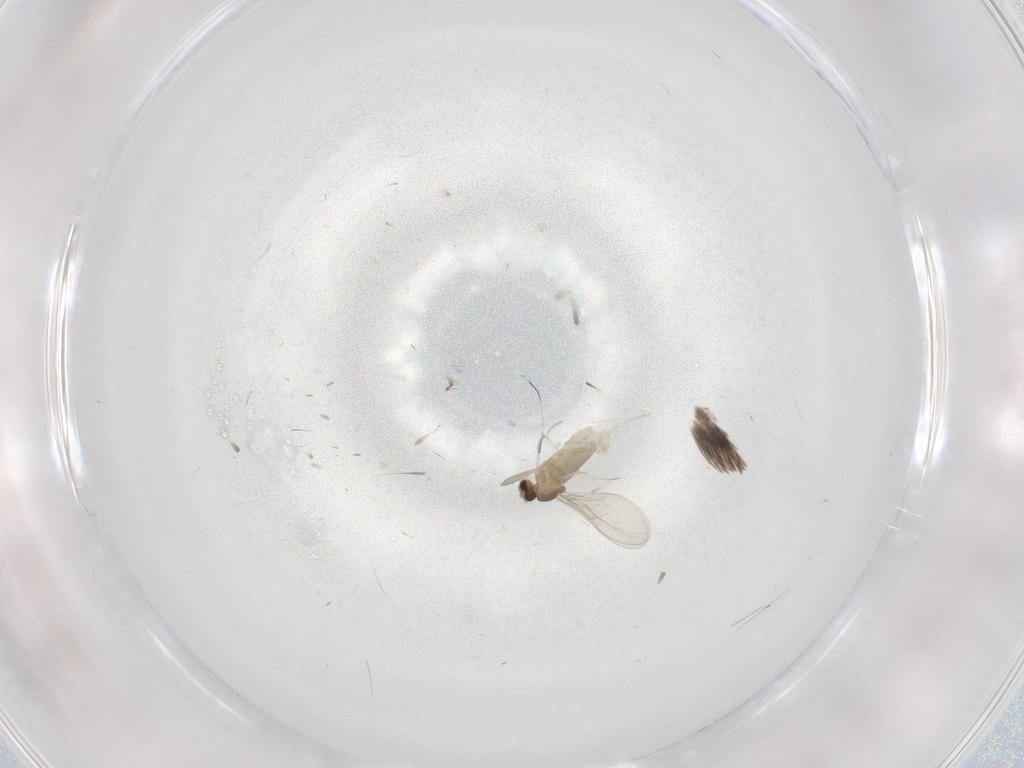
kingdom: Animalia
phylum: Arthropoda
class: Insecta
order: Diptera
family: Cecidomyiidae
